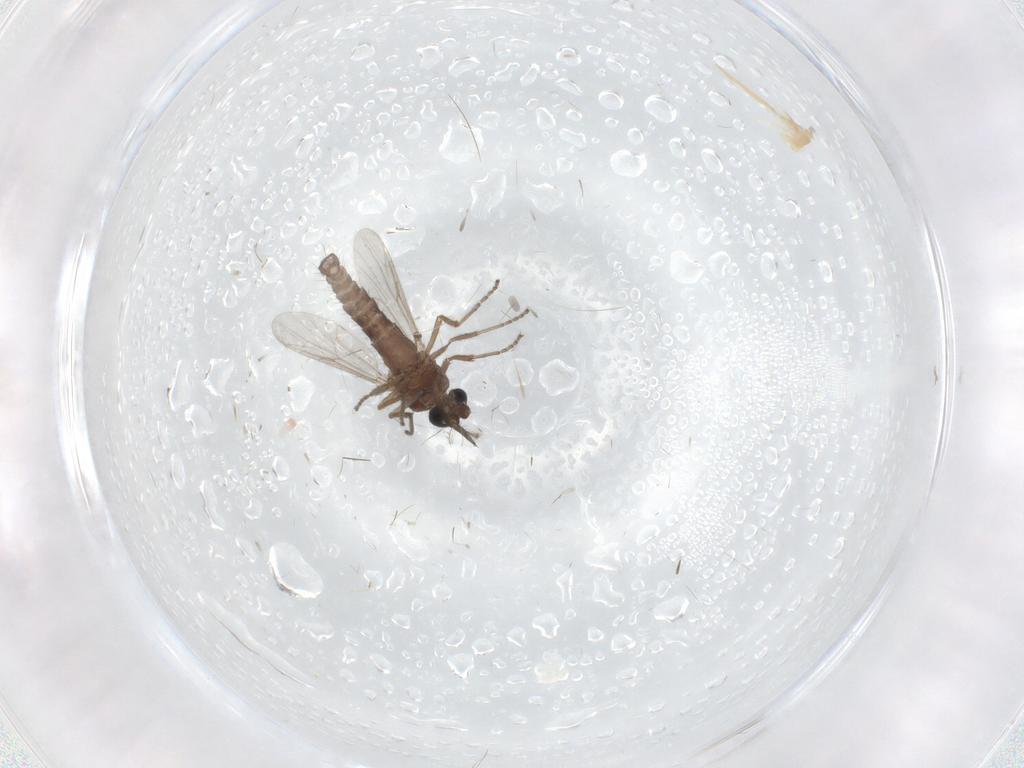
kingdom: Animalia
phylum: Arthropoda
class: Insecta
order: Diptera
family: Ceratopogonidae
